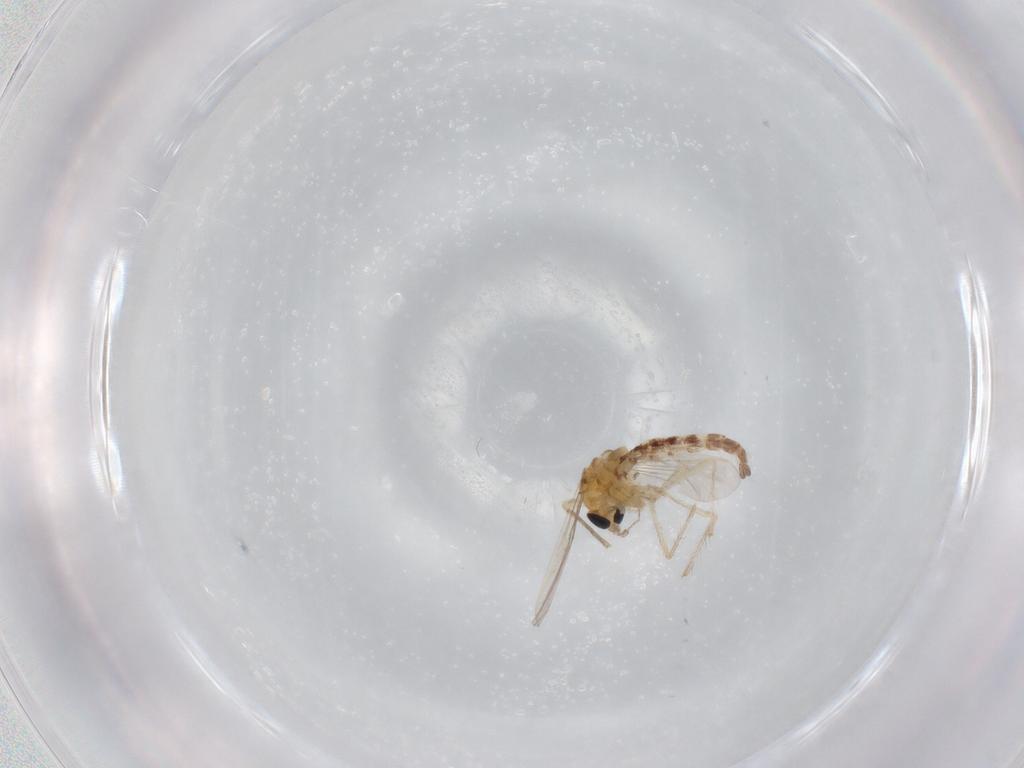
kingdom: Animalia
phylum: Arthropoda
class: Insecta
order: Diptera
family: Chironomidae
